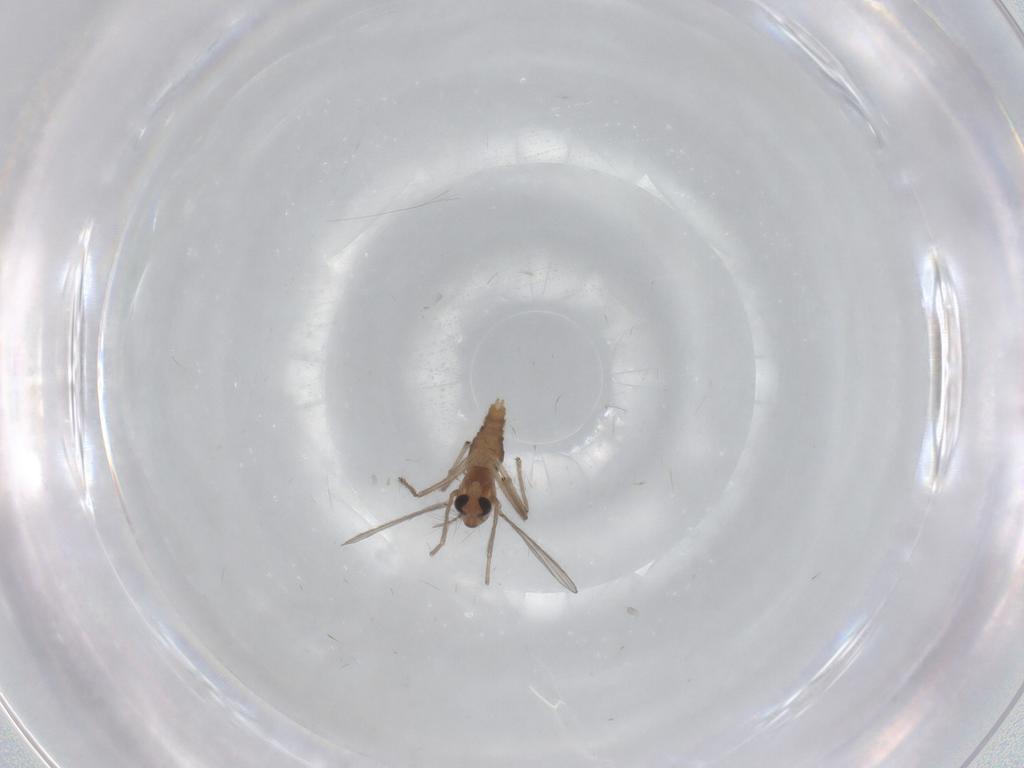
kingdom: Animalia
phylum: Arthropoda
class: Insecta
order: Diptera
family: Chironomidae
